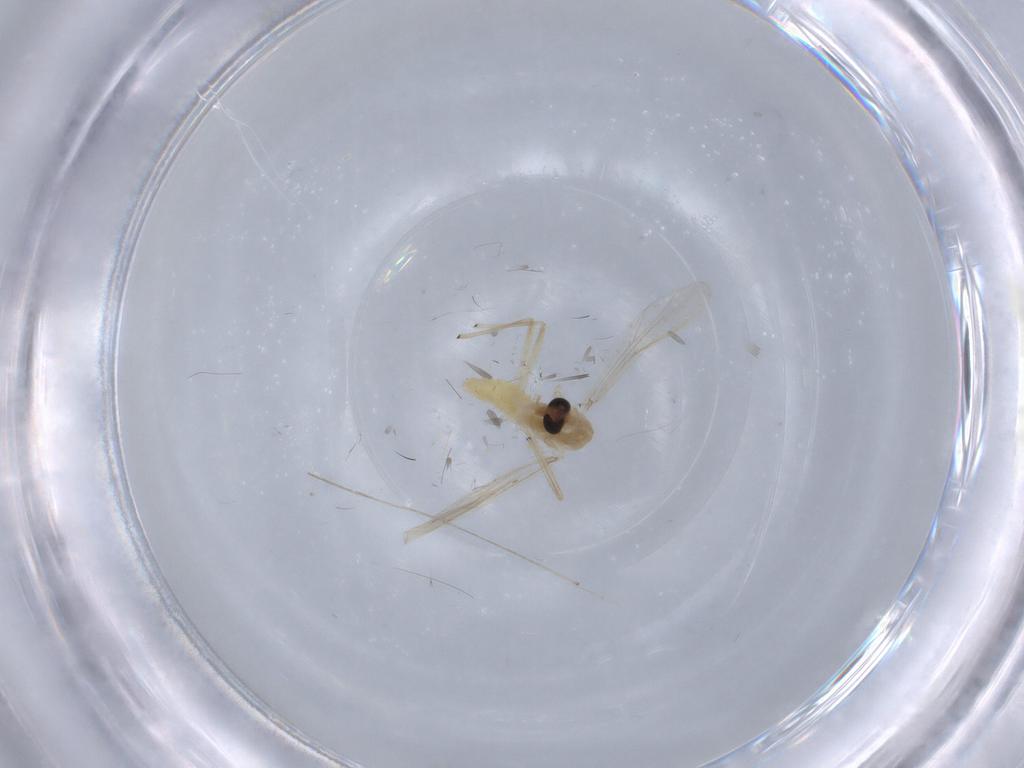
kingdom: Animalia
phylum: Arthropoda
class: Insecta
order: Diptera
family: Chironomidae
